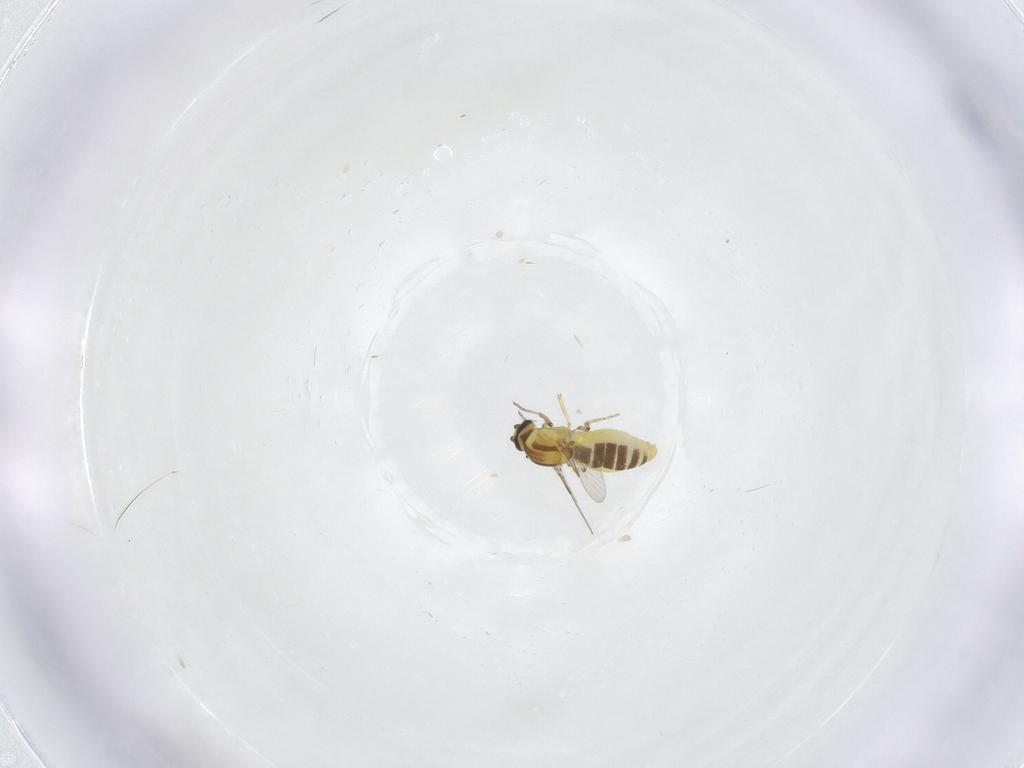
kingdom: Animalia
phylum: Arthropoda
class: Insecta
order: Diptera
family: Ceratopogonidae
